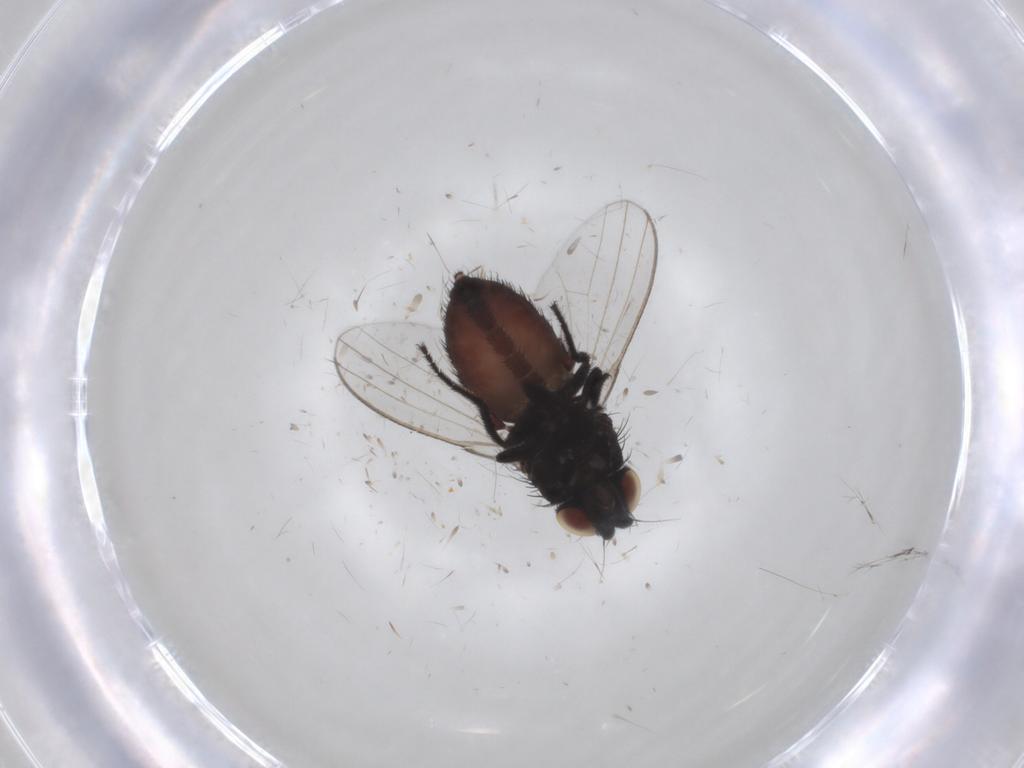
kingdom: Animalia
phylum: Arthropoda
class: Insecta
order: Diptera
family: Milichiidae
